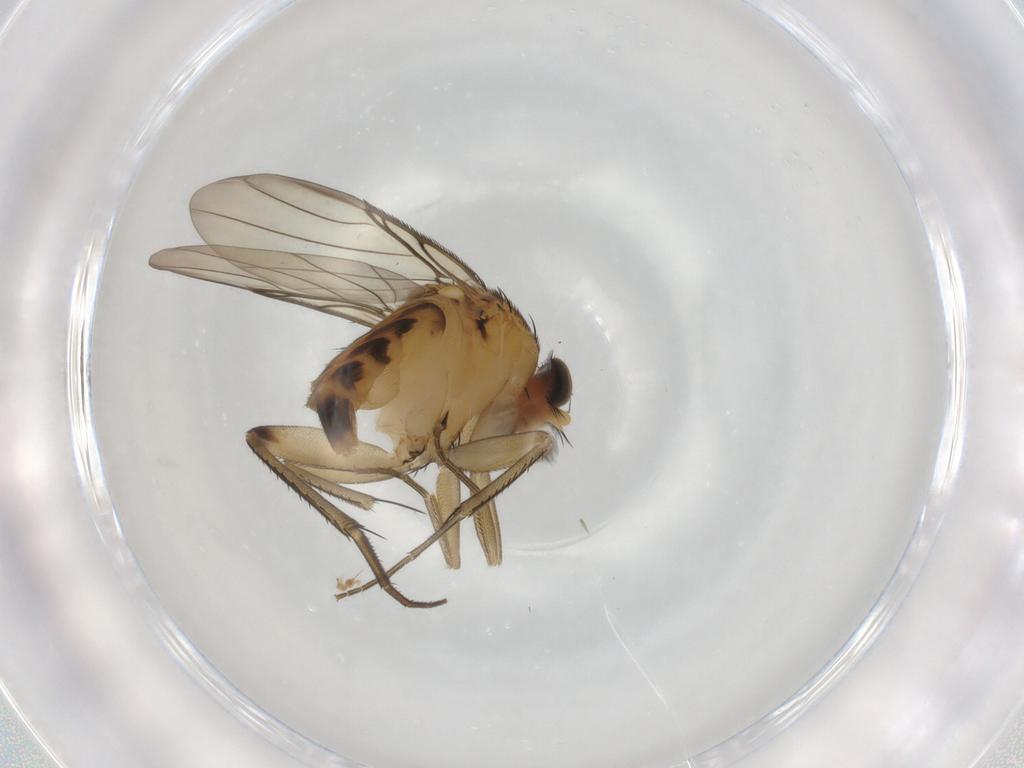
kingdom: Animalia
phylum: Arthropoda
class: Insecta
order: Diptera
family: Phoridae
